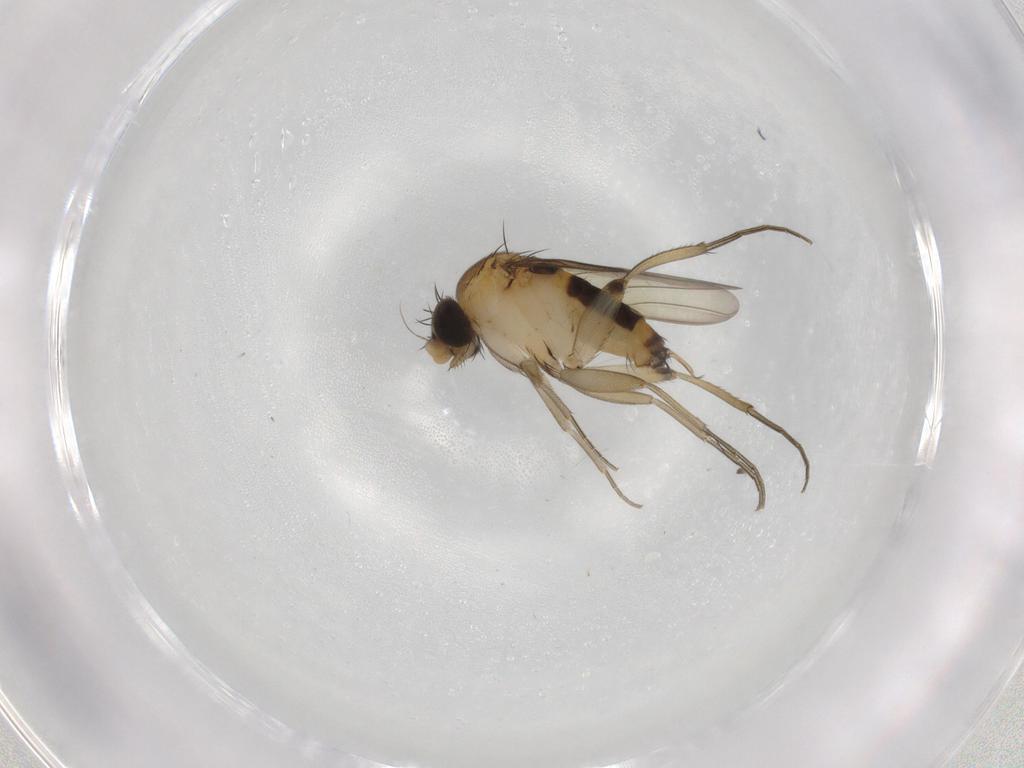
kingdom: Animalia
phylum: Arthropoda
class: Insecta
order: Diptera
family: Phoridae
